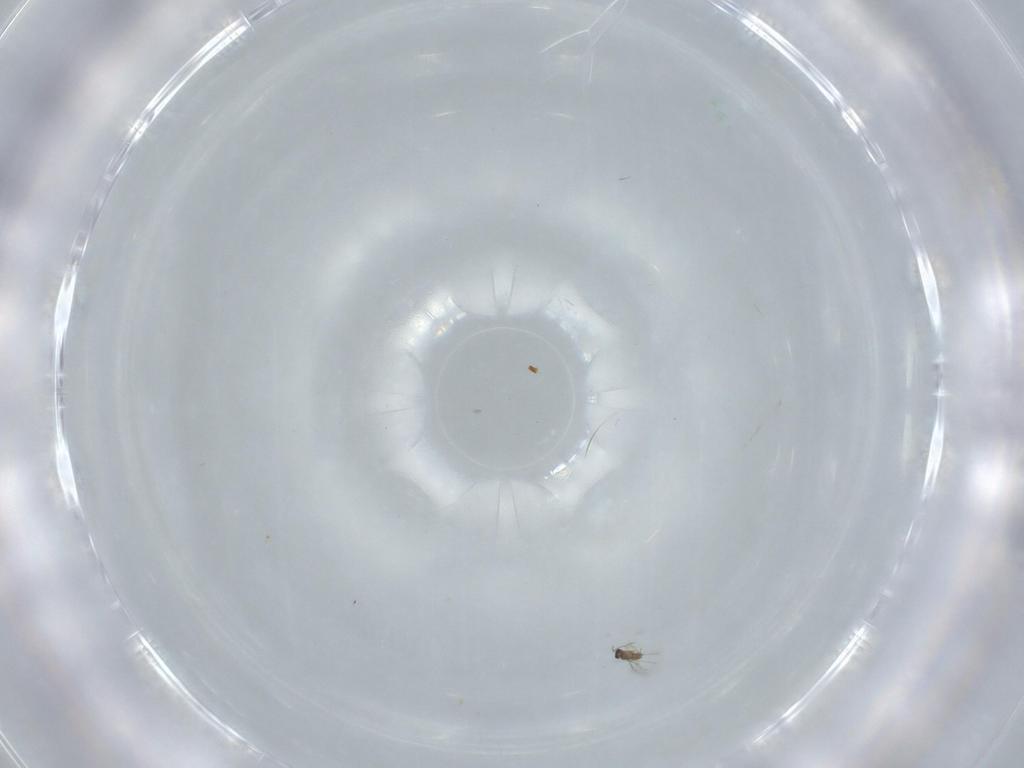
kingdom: Animalia
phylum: Arthropoda
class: Insecta
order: Hymenoptera
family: Mymaridae
